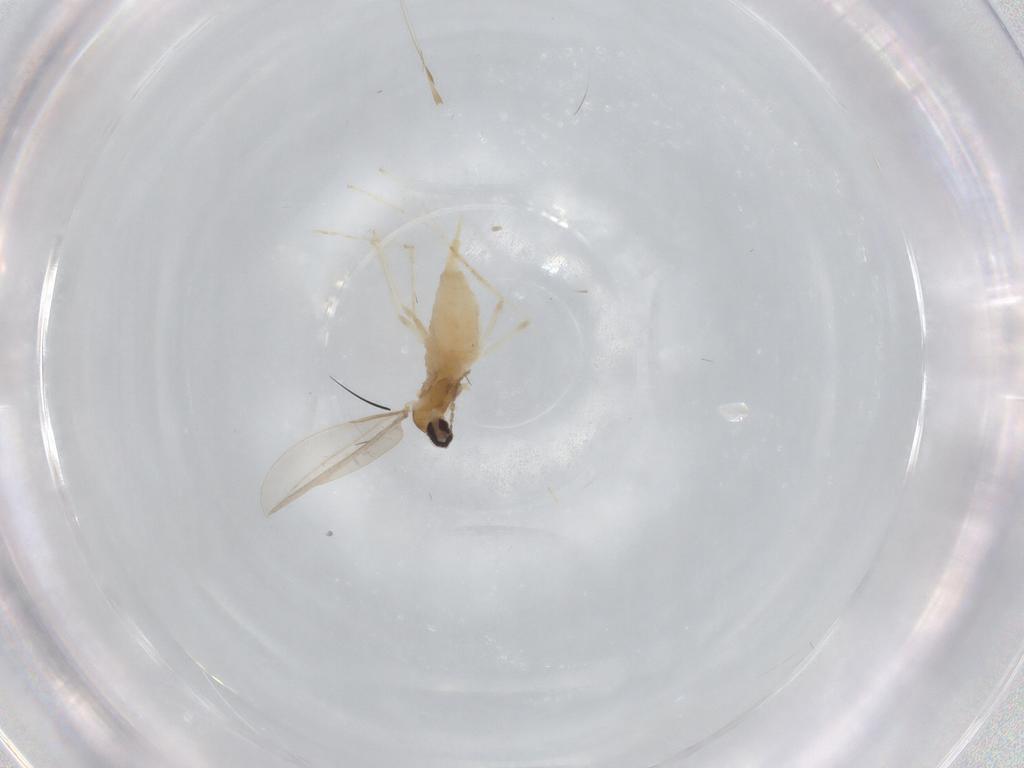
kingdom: Animalia
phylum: Arthropoda
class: Insecta
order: Diptera
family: Cecidomyiidae
